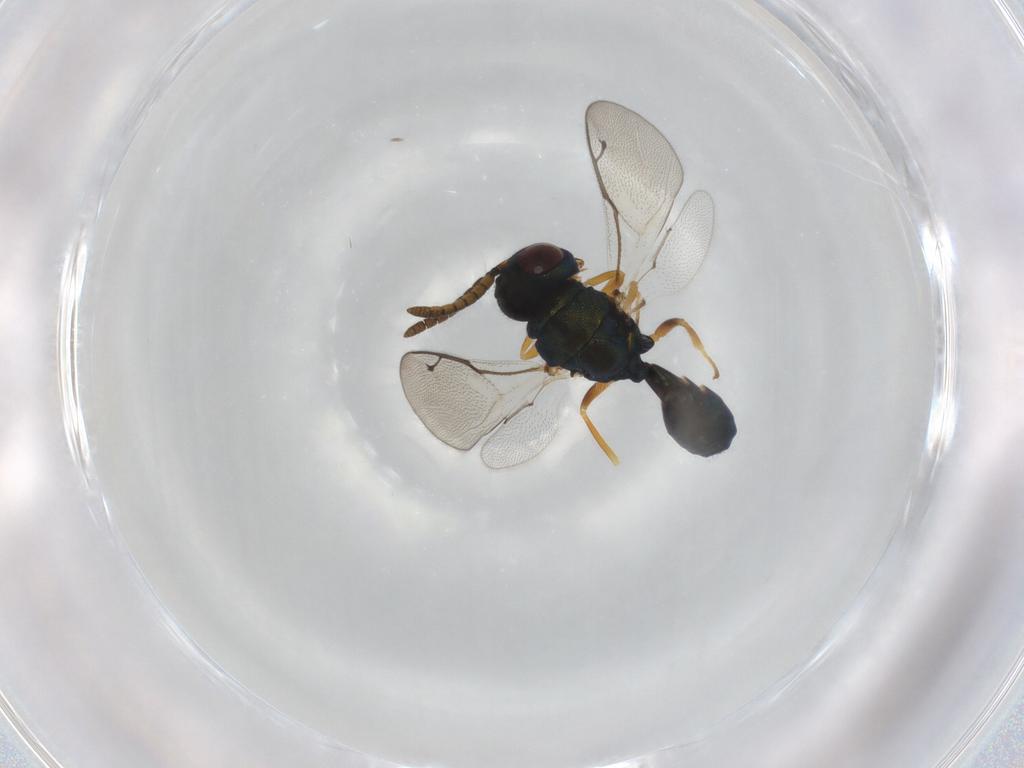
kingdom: Animalia
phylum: Arthropoda
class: Insecta
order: Hymenoptera
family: Pteromalidae
